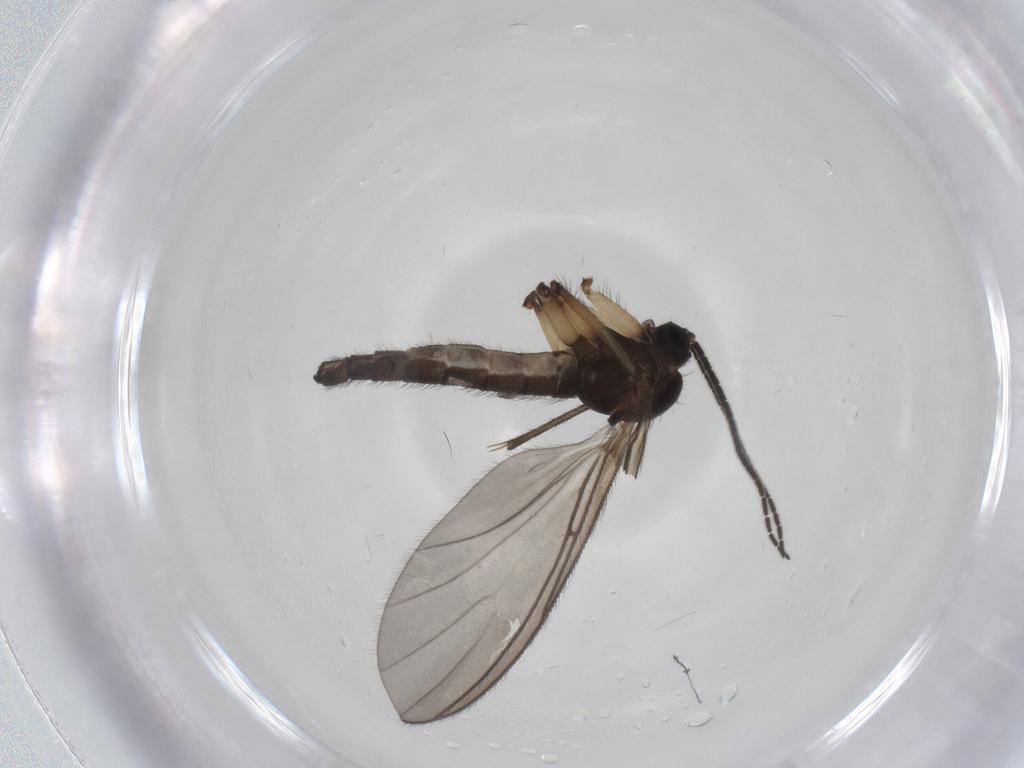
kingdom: Animalia
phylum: Arthropoda
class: Insecta
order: Diptera
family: Sciaridae
